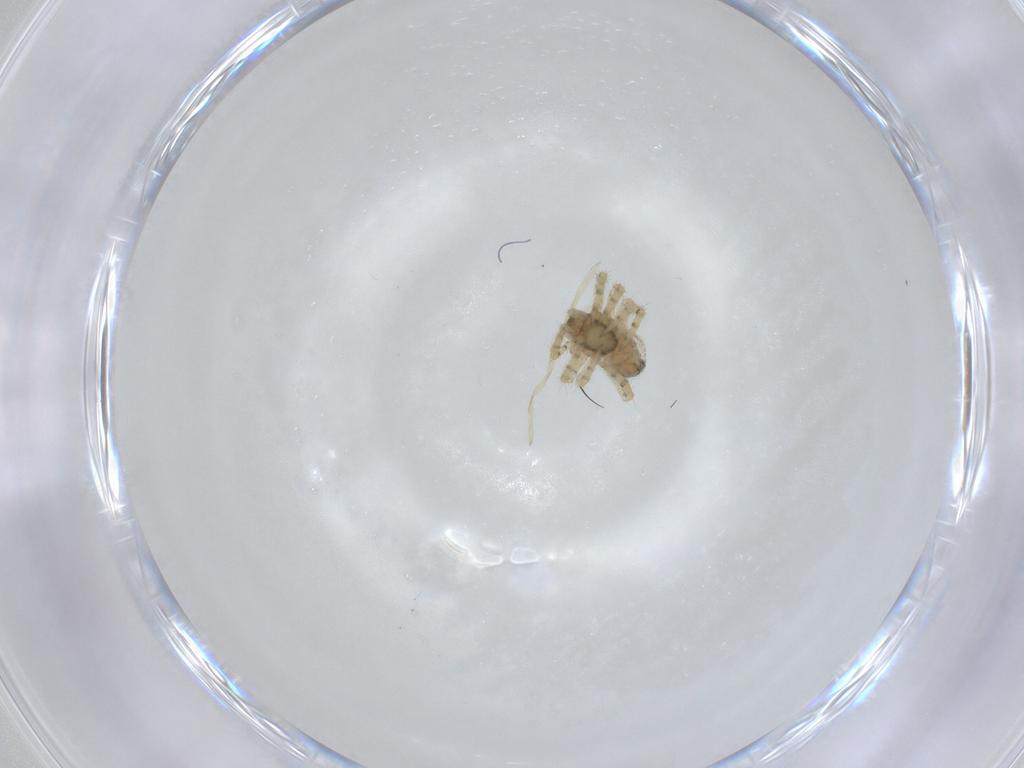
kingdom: Animalia
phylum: Arthropoda
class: Arachnida
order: Araneae
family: Theridiidae
